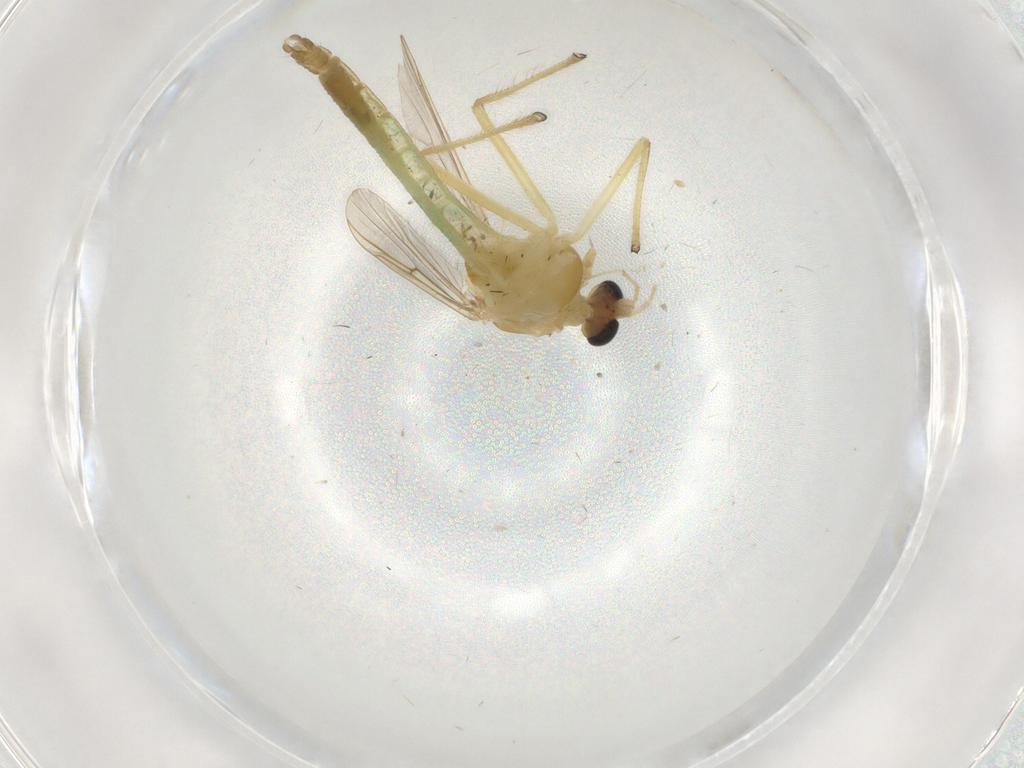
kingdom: Animalia
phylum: Arthropoda
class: Insecta
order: Diptera
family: Chironomidae
